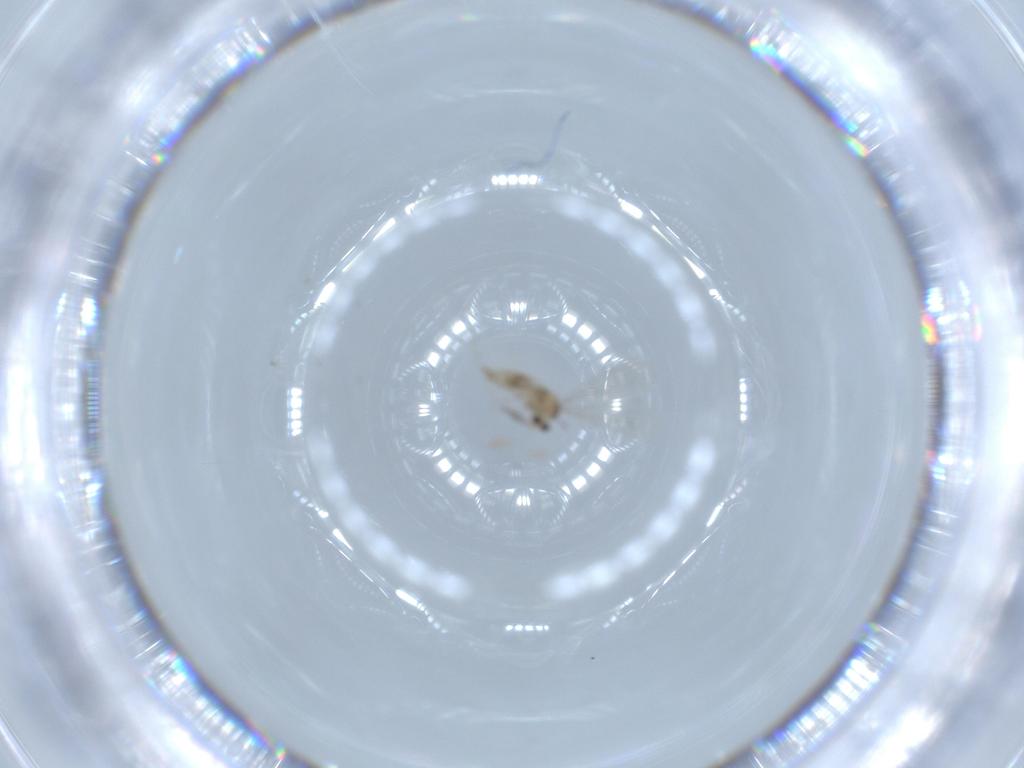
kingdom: Animalia
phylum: Arthropoda
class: Insecta
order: Diptera
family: Cecidomyiidae
